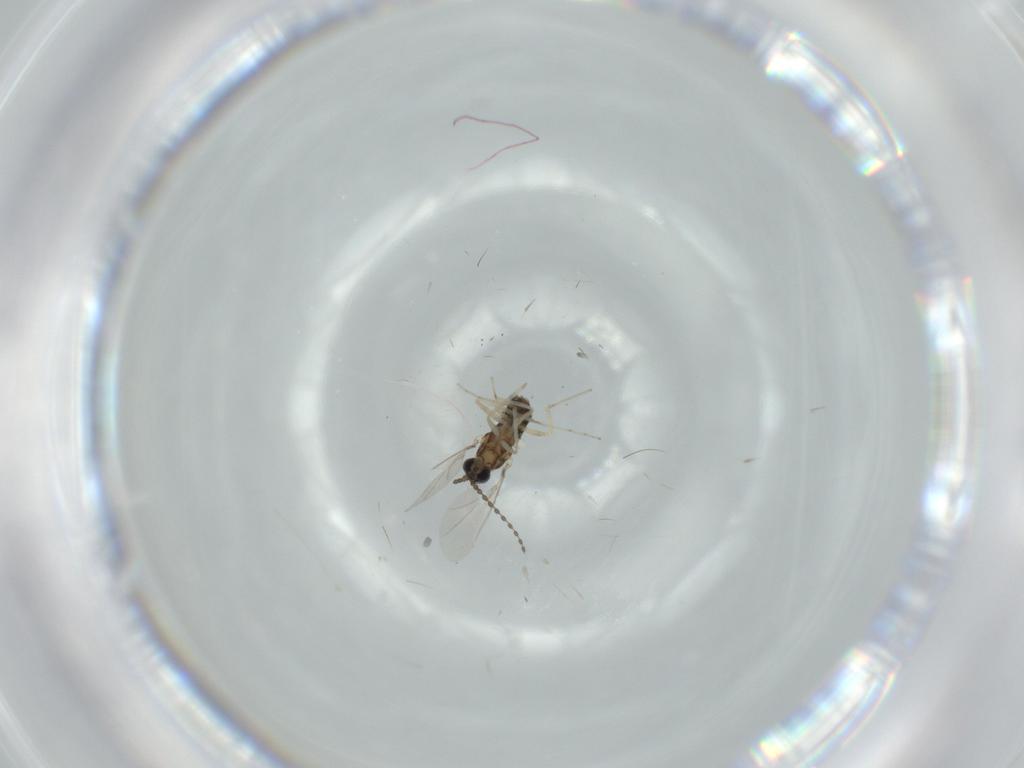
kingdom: Animalia
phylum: Arthropoda
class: Insecta
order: Diptera
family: Cecidomyiidae
